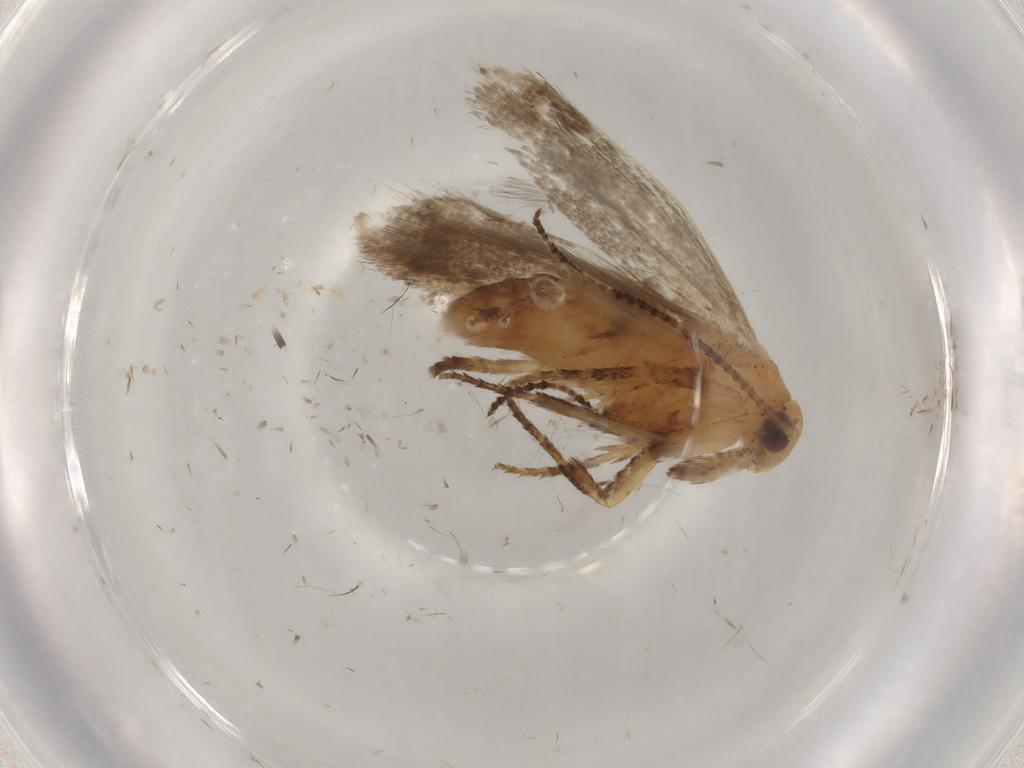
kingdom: Animalia
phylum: Arthropoda
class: Insecta
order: Lepidoptera
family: Ypsolophidae
